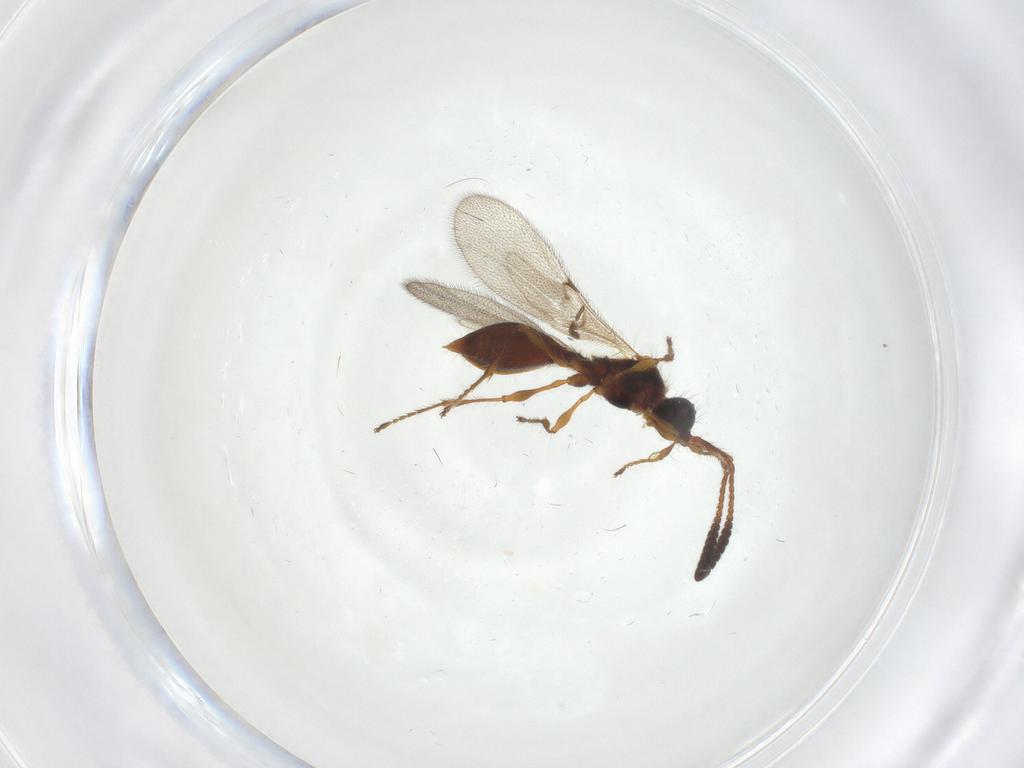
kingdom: Animalia
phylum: Arthropoda
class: Insecta
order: Hymenoptera
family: Diapriidae
